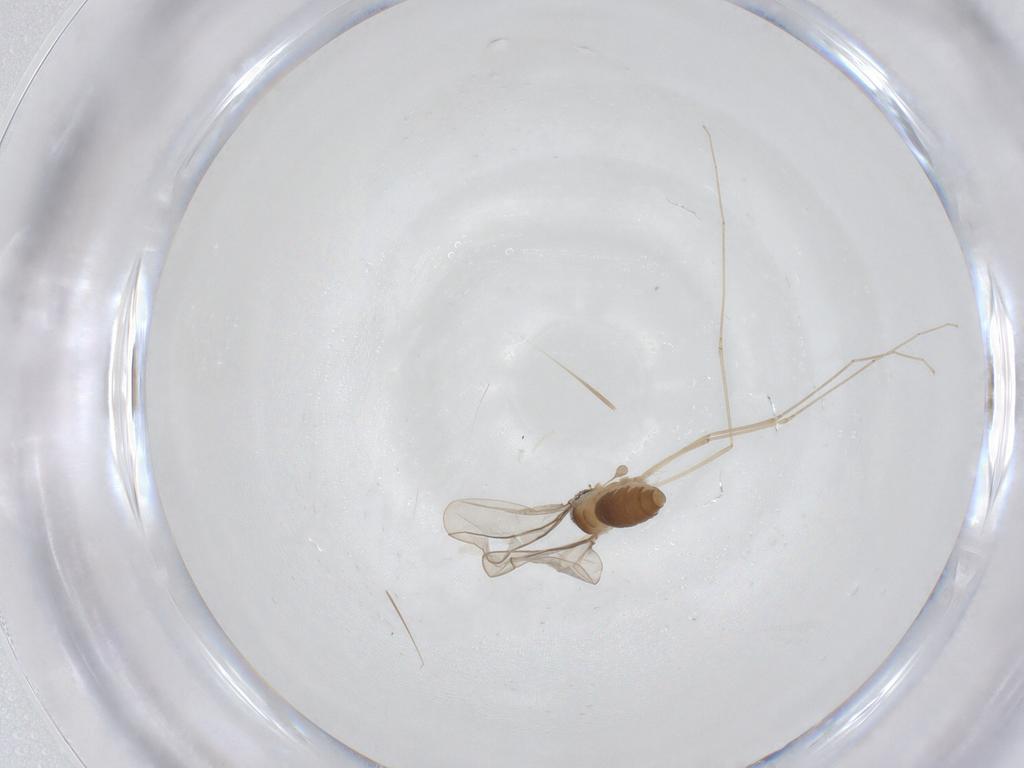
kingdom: Animalia
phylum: Arthropoda
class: Insecta
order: Diptera
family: Cecidomyiidae
